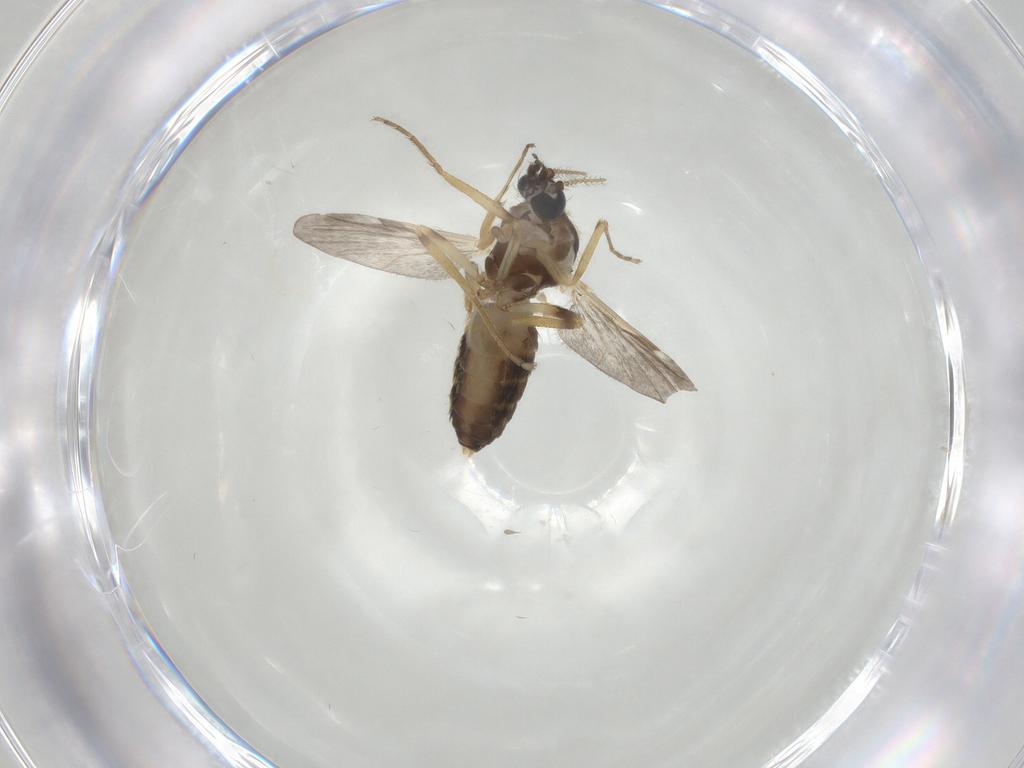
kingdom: Animalia
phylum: Arthropoda
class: Insecta
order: Diptera
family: Ceratopogonidae
